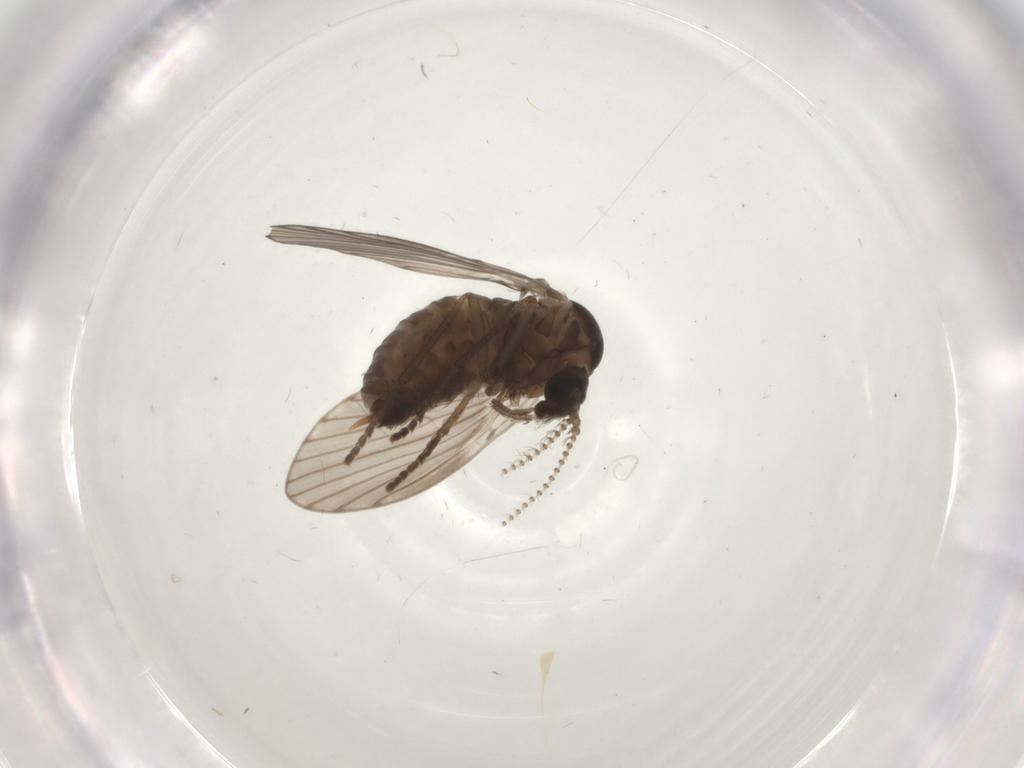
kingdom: Animalia
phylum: Arthropoda
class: Insecta
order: Diptera
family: Psychodidae
